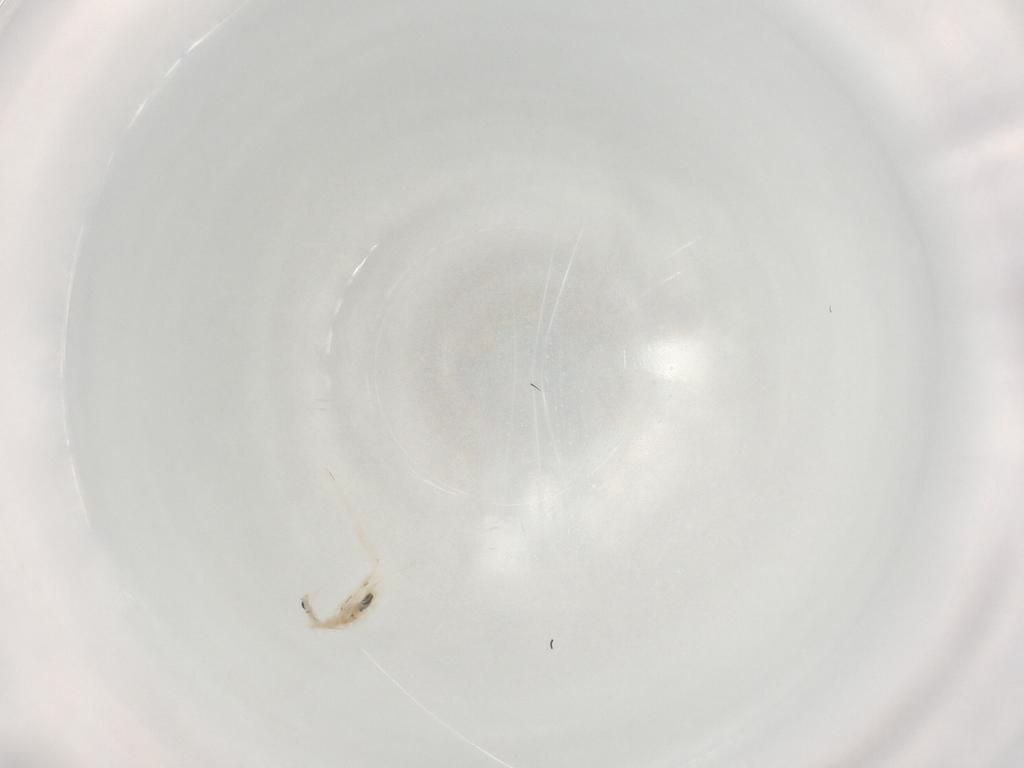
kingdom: Animalia
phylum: Arthropoda
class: Collembola
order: Entomobryomorpha
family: Entomobryidae
